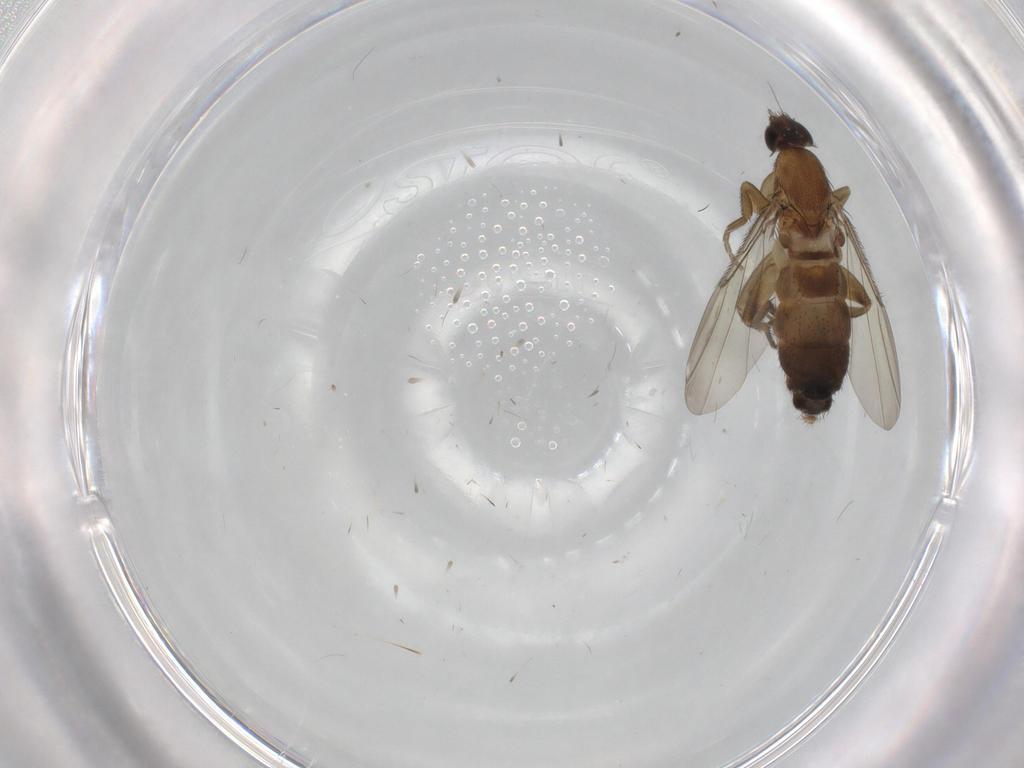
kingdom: Animalia
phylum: Arthropoda
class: Insecta
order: Diptera
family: Phoridae
